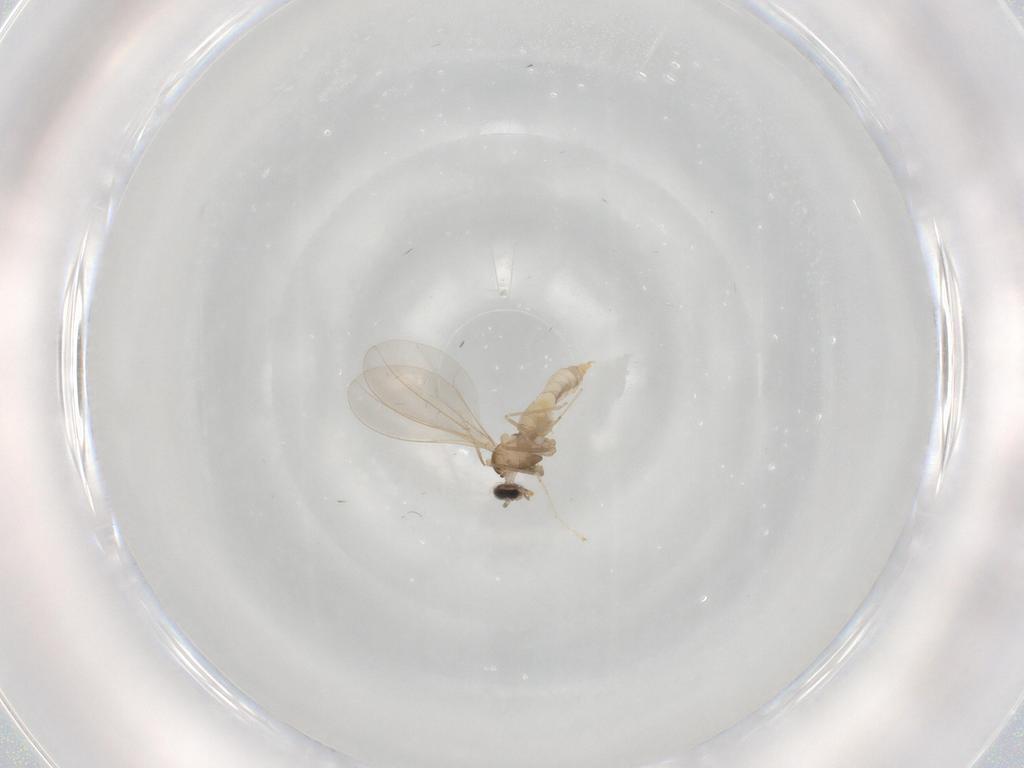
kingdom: Animalia
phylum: Arthropoda
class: Insecta
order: Diptera
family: Cecidomyiidae
